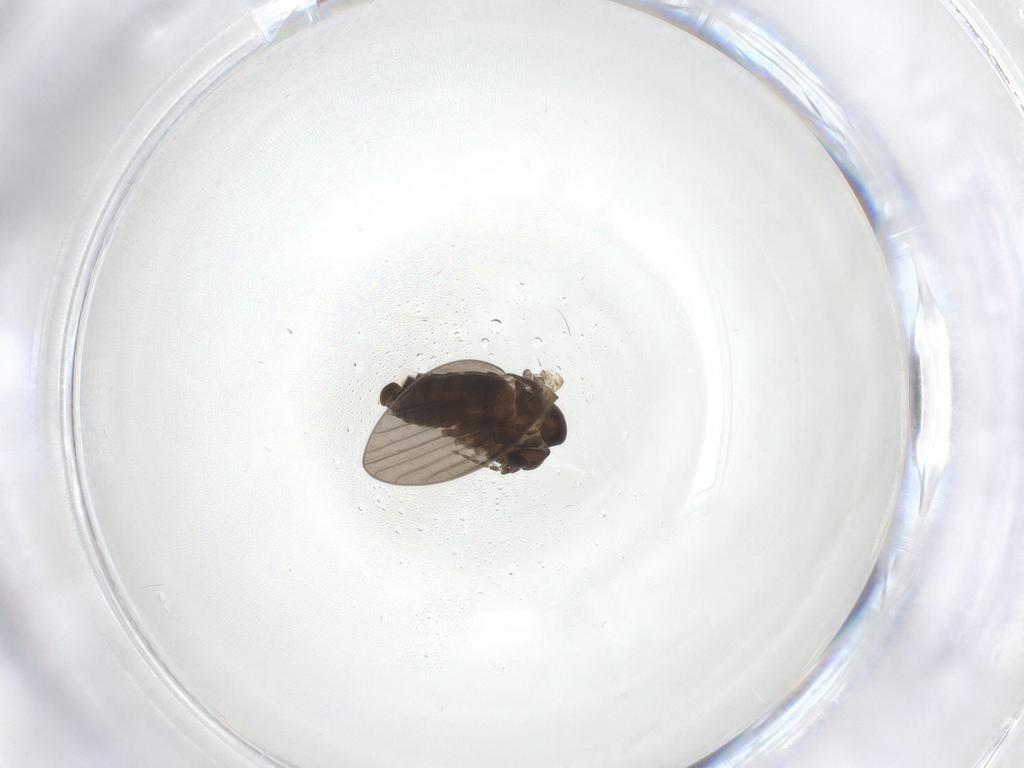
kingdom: Animalia
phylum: Arthropoda
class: Insecta
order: Diptera
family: Psychodidae
